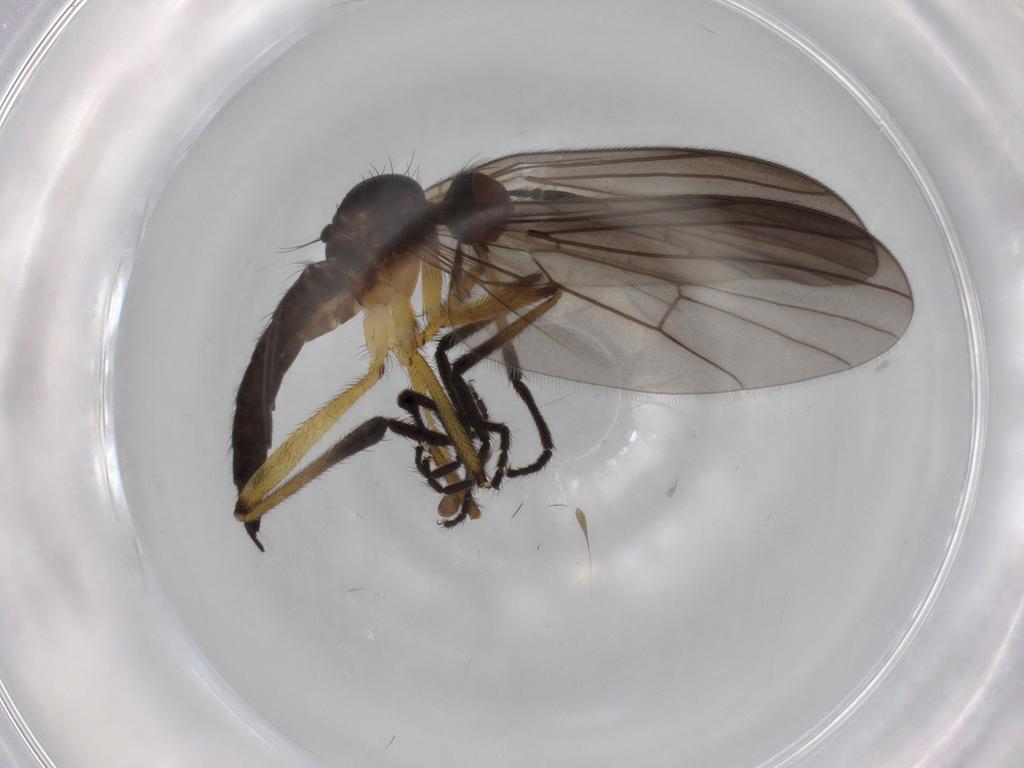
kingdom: Animalia
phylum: Arthropoda
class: Insecta
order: Diptera
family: Empididae
